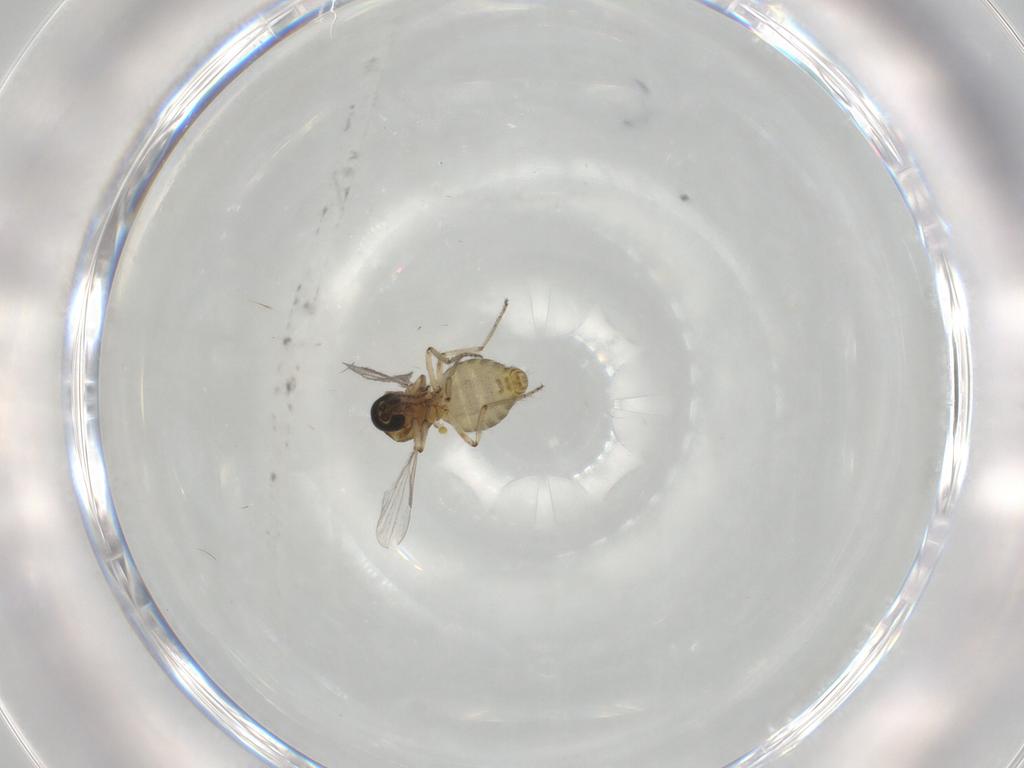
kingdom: Animalia
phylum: Arthropoda
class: Insecta
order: Diptera
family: Ceratopogonidae
